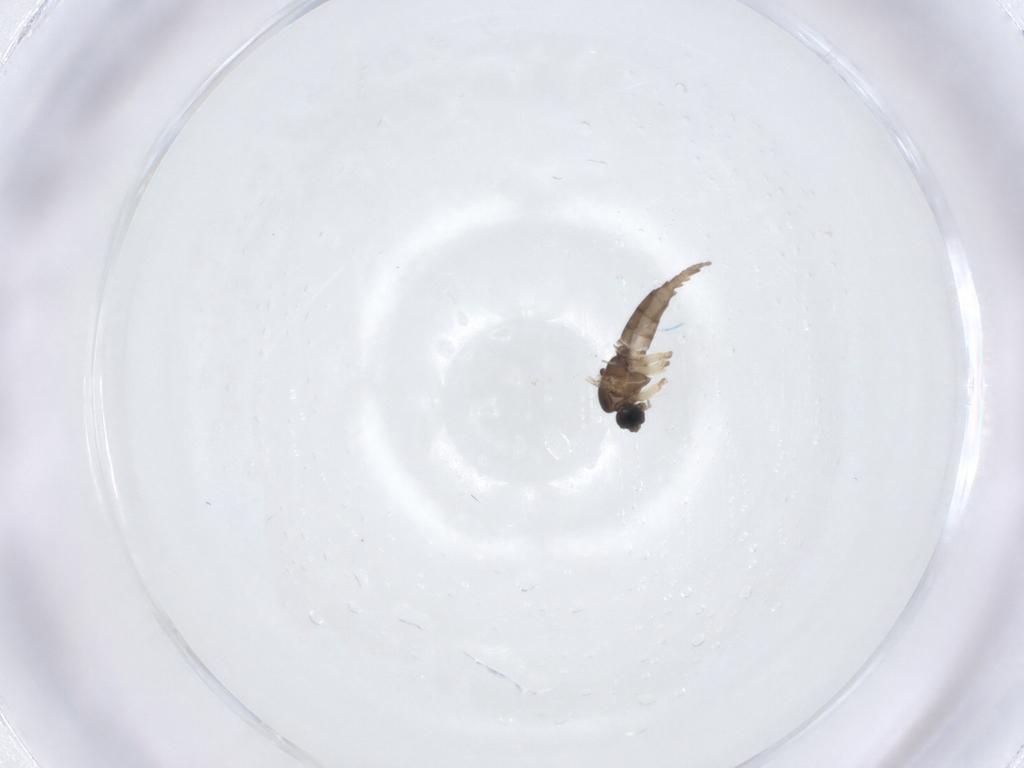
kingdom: Animalia
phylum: Arthropoda
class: Insecta
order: Diptera
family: Sciaridae
